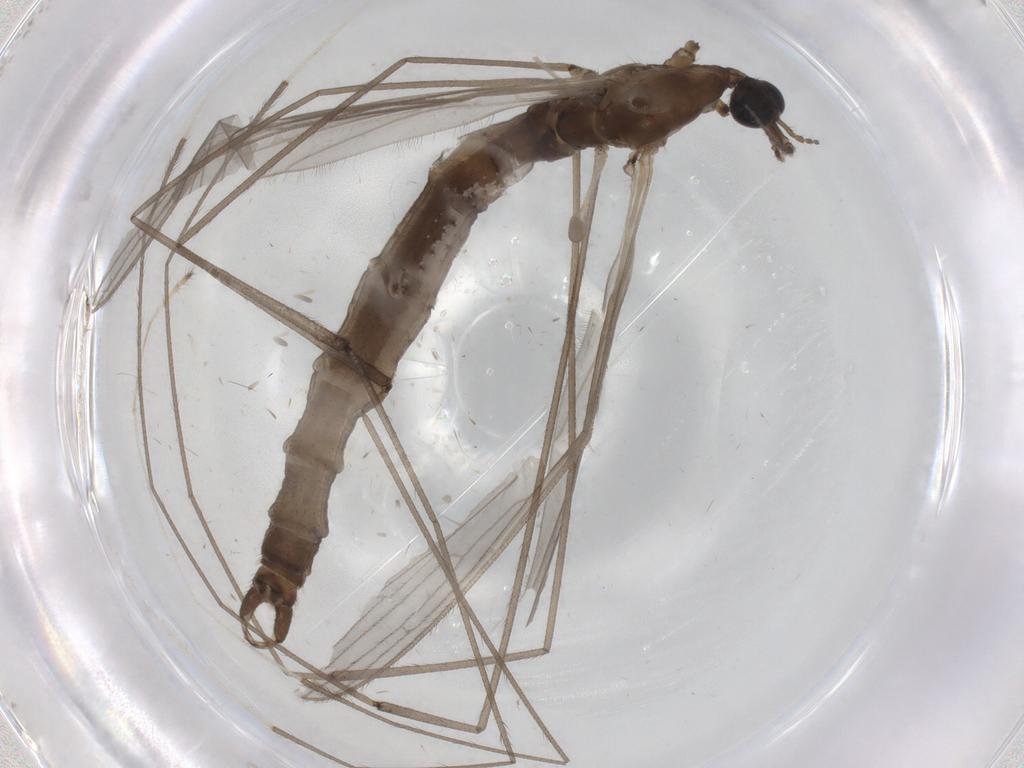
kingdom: Animalia
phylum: Arthropoda
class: Insecta
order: Diptera
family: Limoniidae
